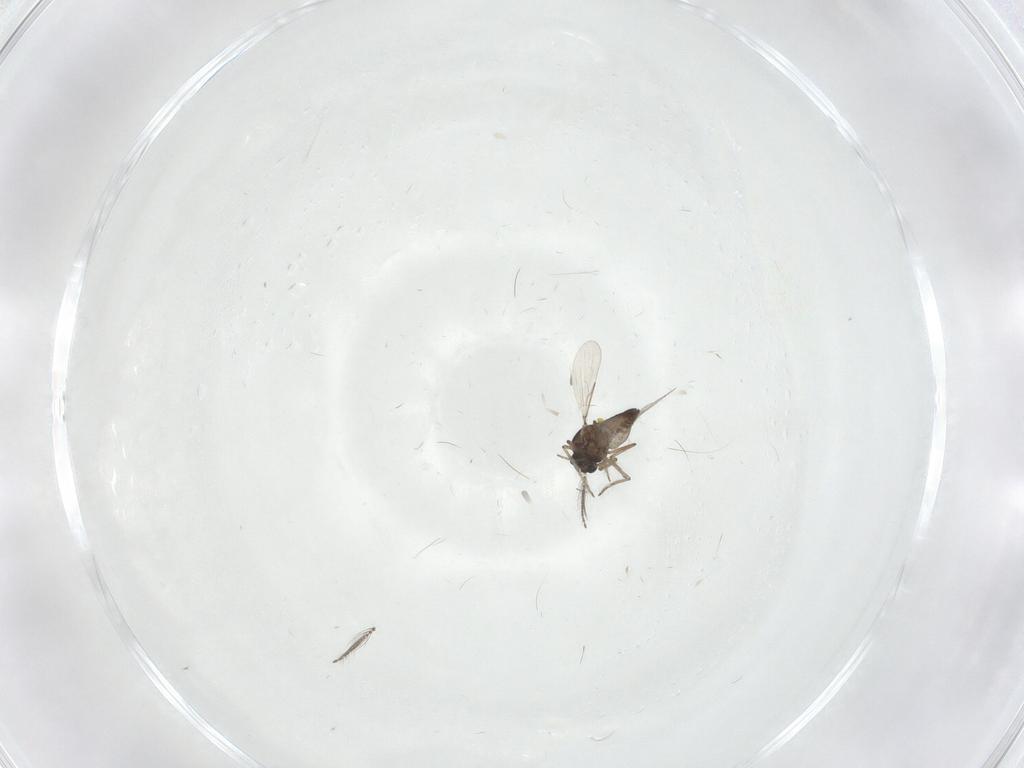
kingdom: Animalia
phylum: Arthropoda
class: Insecta
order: Diptera
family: Ceratopogonidae
